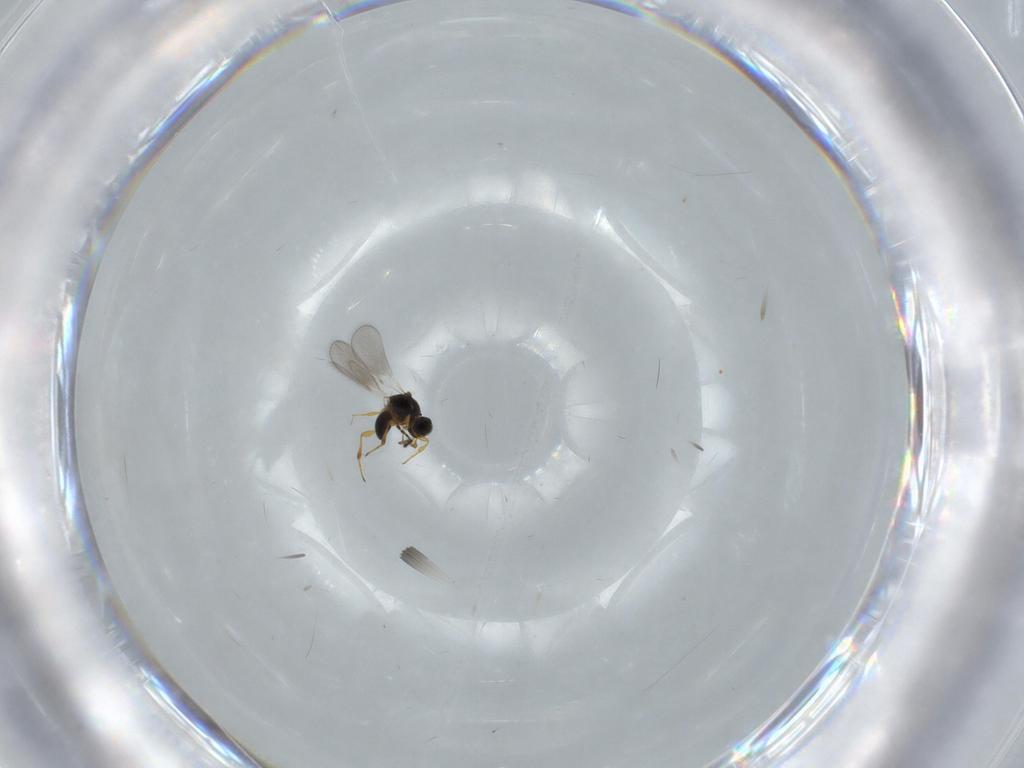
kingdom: Animalia
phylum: Arthropoda
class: Insecta
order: Hymenoptera
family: Platygastridae
